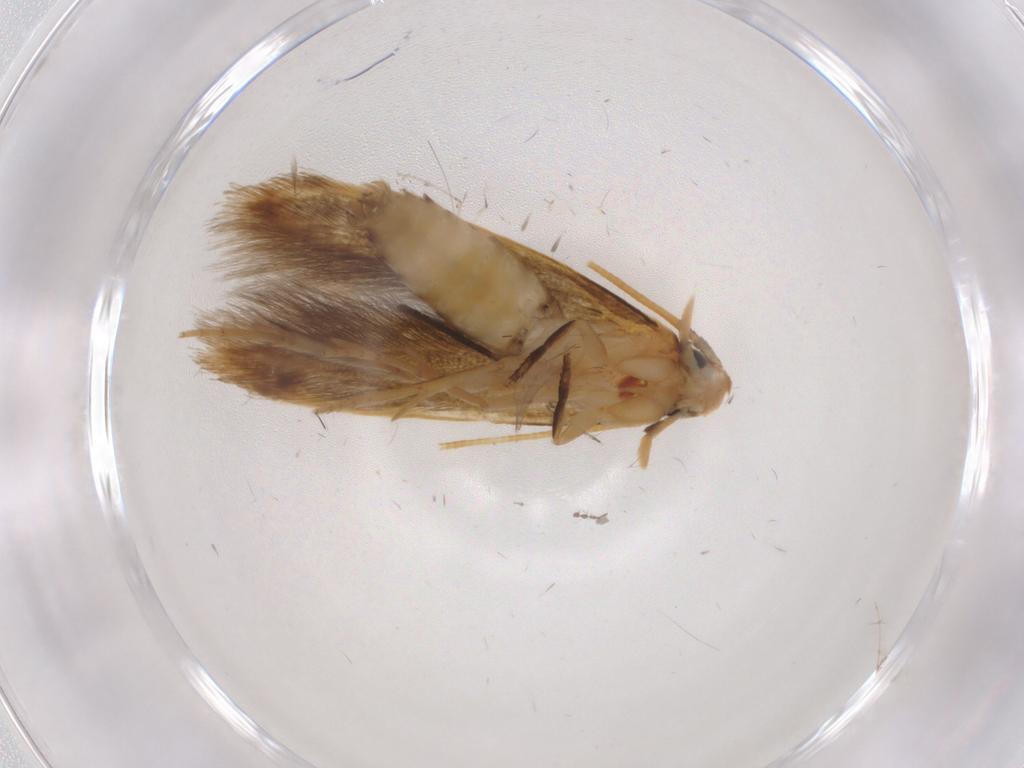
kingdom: Animalia
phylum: Arthropoda
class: Insecta
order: Lepidoptera
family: Tineidae
